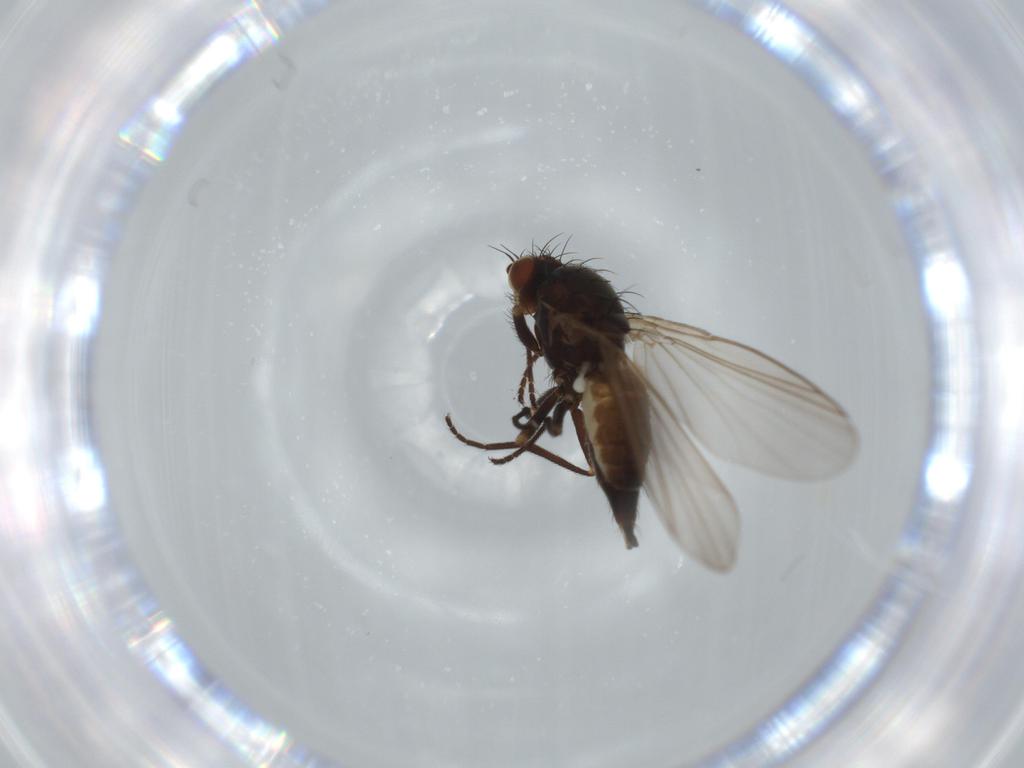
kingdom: Animalia
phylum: Arthropoda
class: Insecta
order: Diptera
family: Agromyzidae
